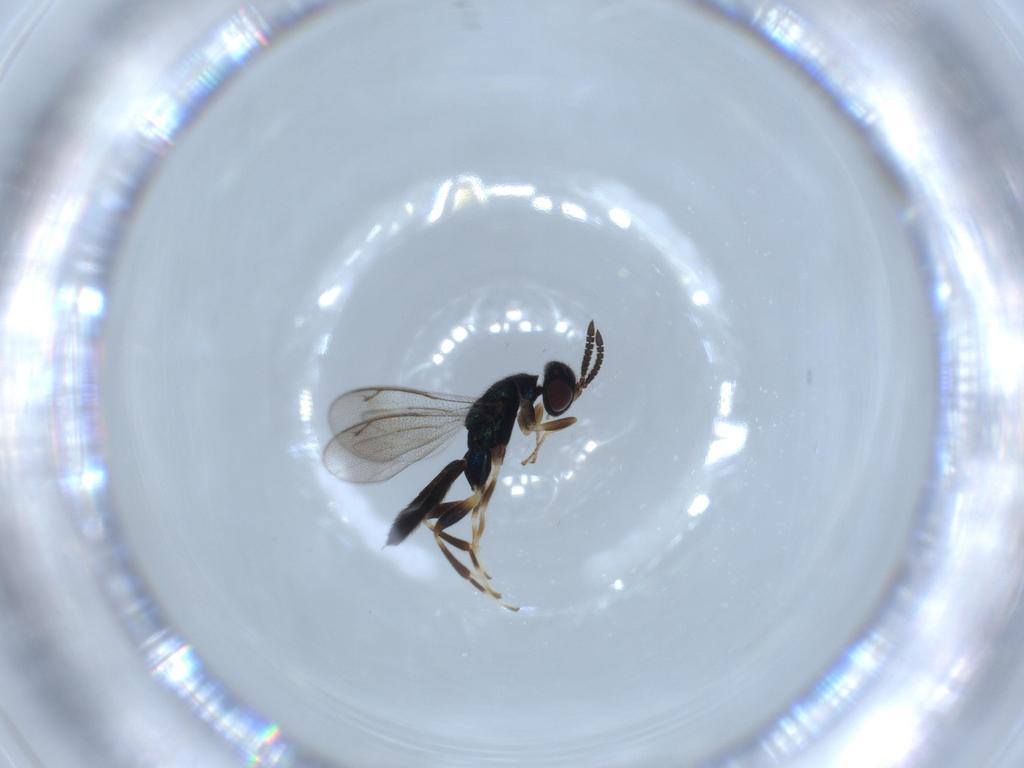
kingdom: Animalia
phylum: Arthropoda
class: Insecta
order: Hymenoptera
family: Cleonyminae
